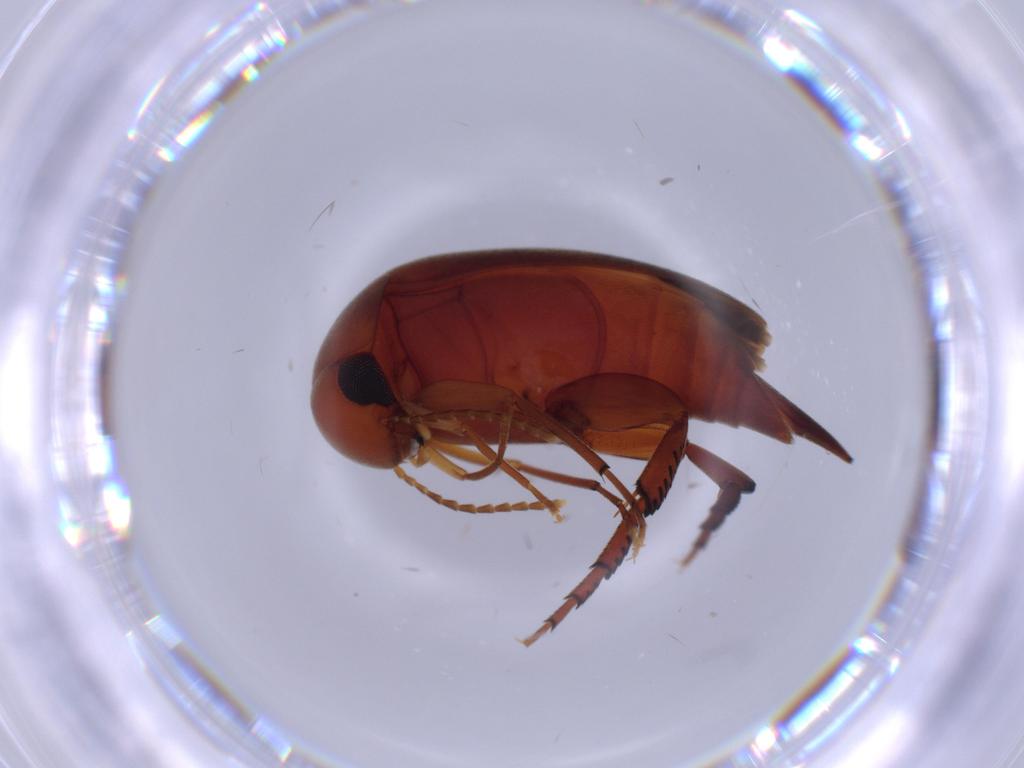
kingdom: Animalia
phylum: Arthropoda
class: Insecta
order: Coleoptera
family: Mordellidae
